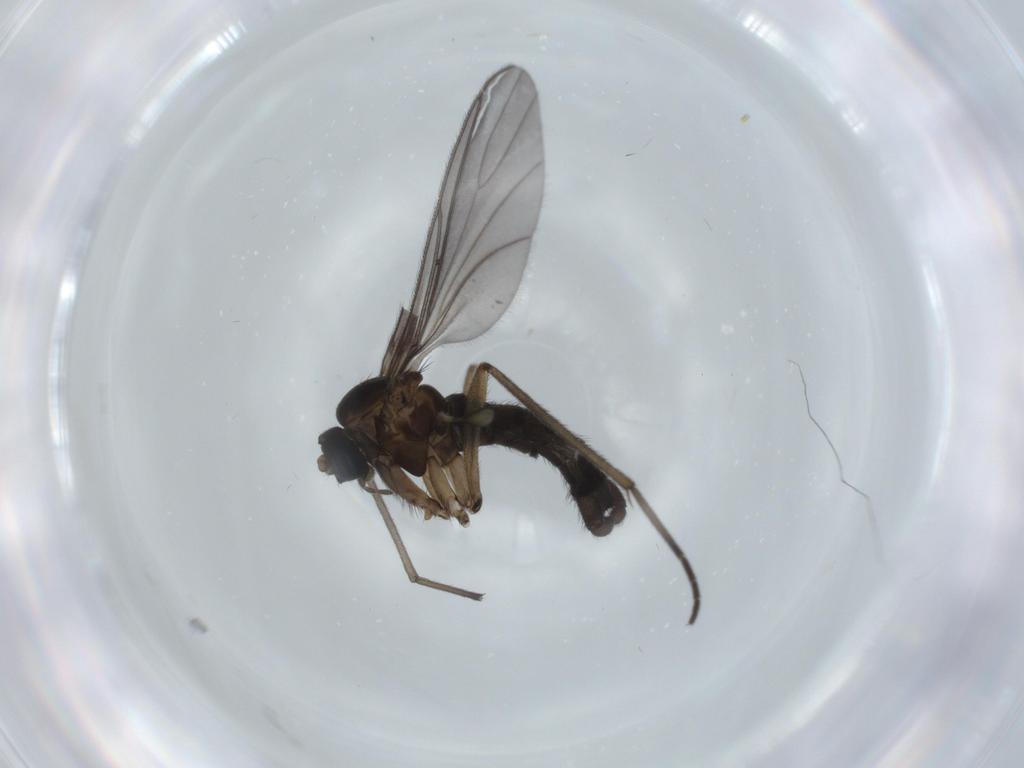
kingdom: Animalia
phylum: Arthropoda
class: Insecta
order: Diptera
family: Sciaridae
